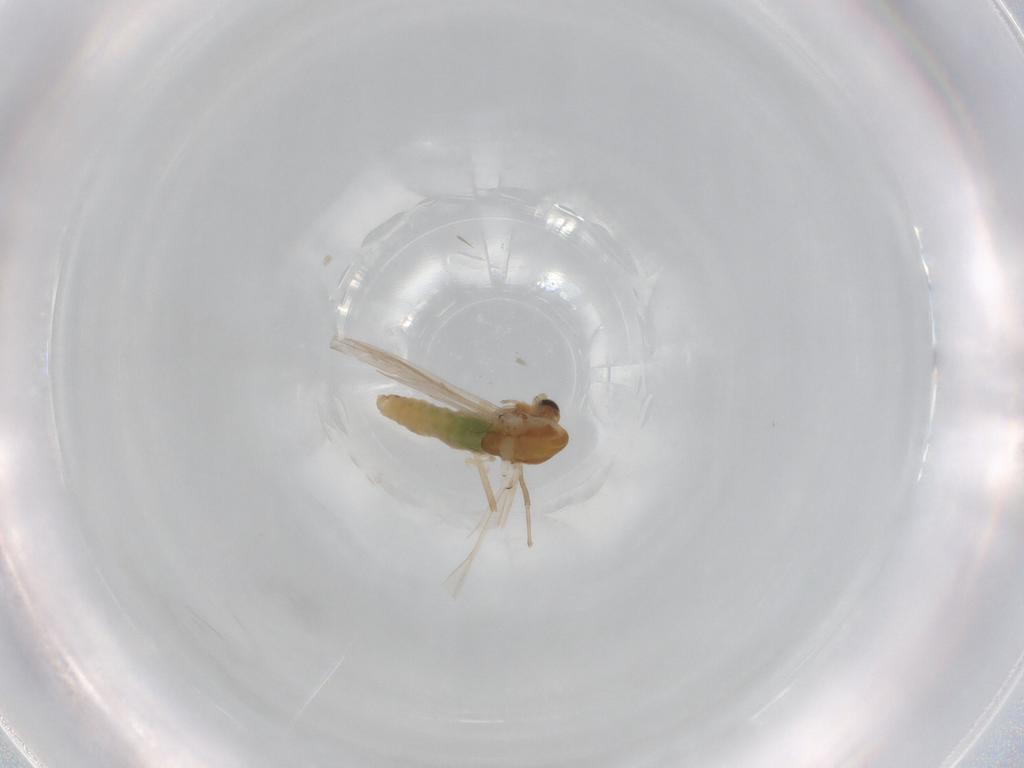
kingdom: Animalia
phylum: Arthropoda
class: Insecta
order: Diptera
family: Chironomidae
